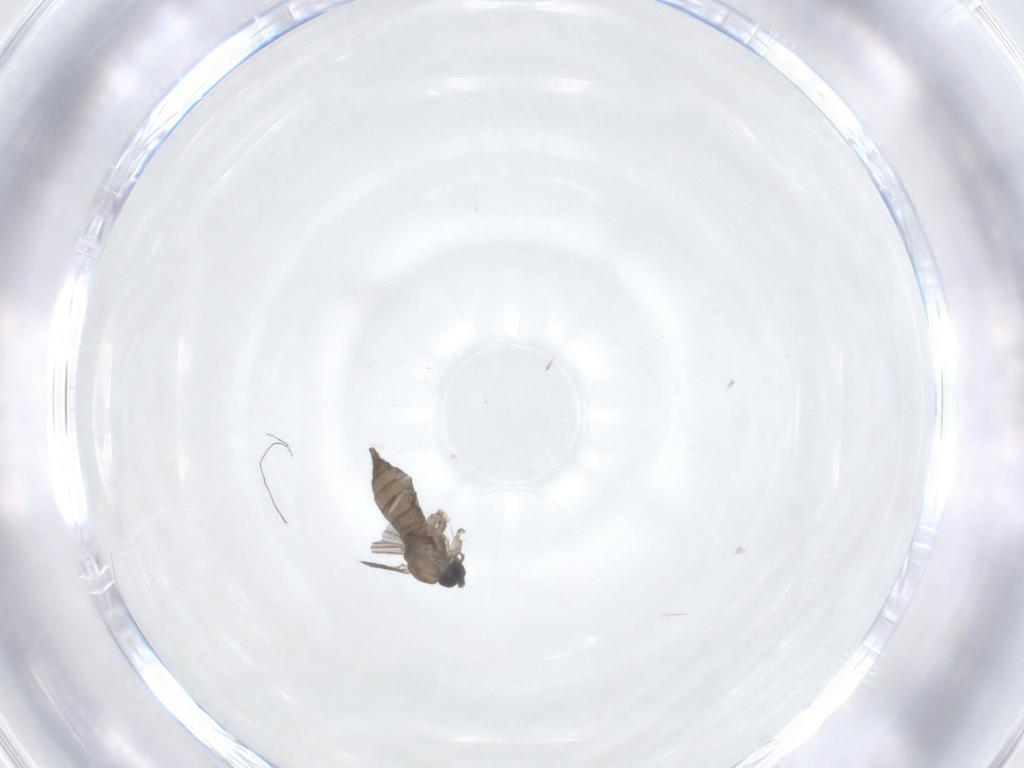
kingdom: Animalia
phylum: Arthropoda
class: Insecta
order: Diptera
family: Sciaridae
